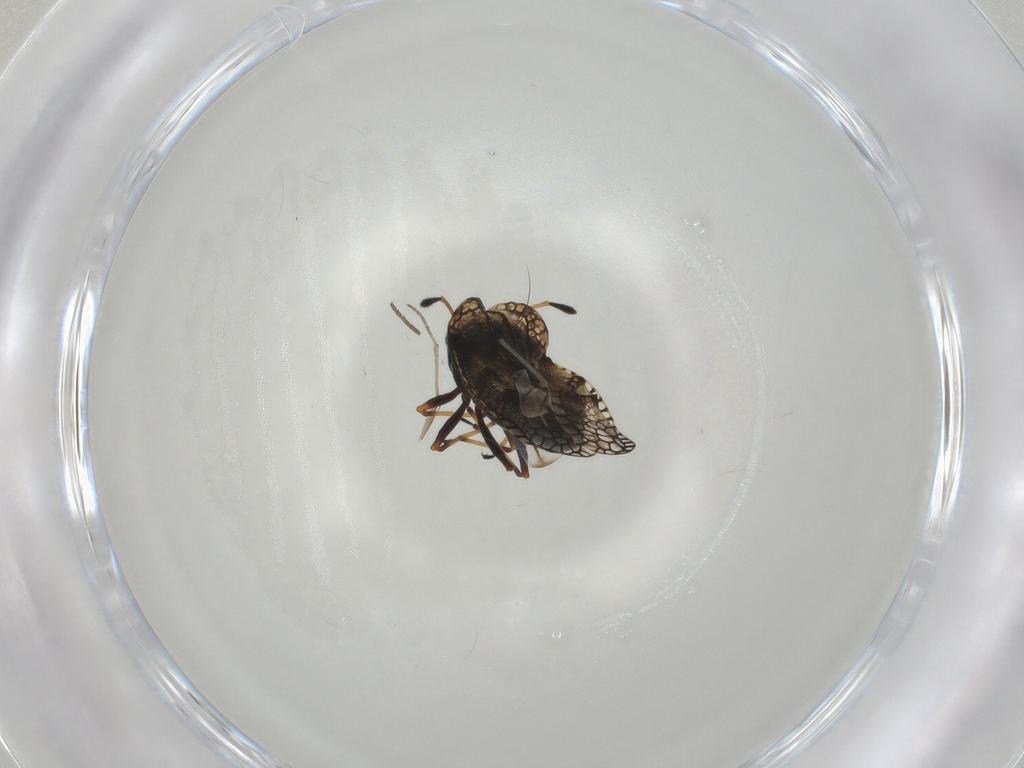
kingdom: Animalia
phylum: Arthropoda
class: Insecta
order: Hemiptera
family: Tingidae
